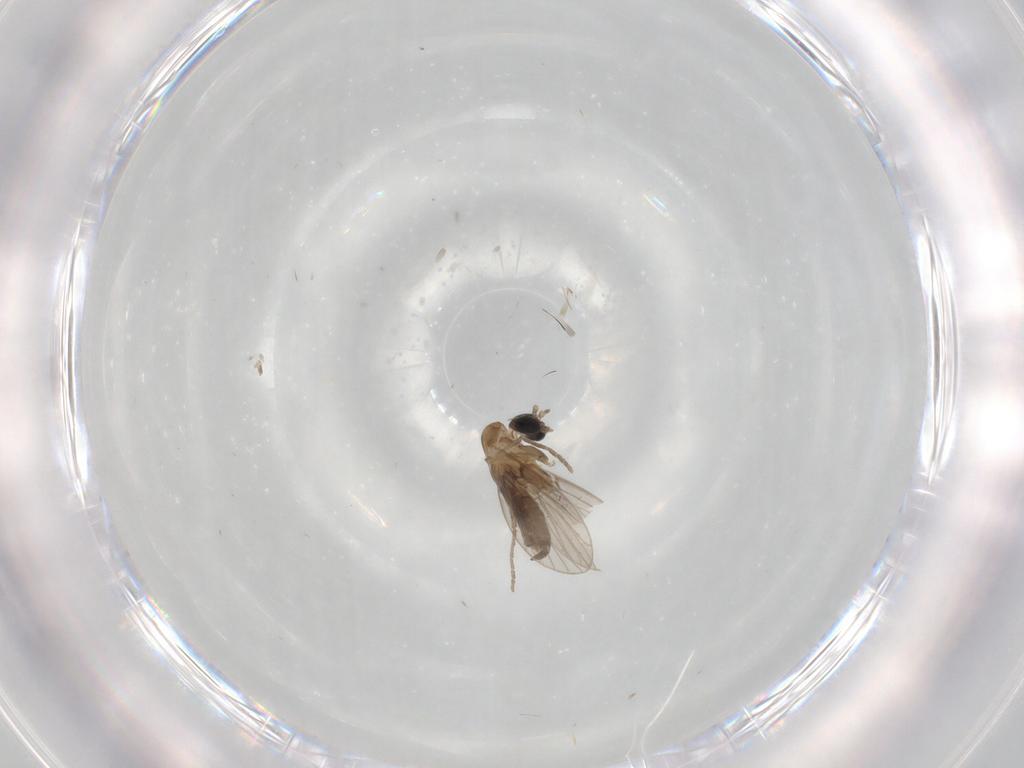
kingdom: Animalia
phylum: Arthropoda
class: Insecta
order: Diptera
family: Psychodidae
